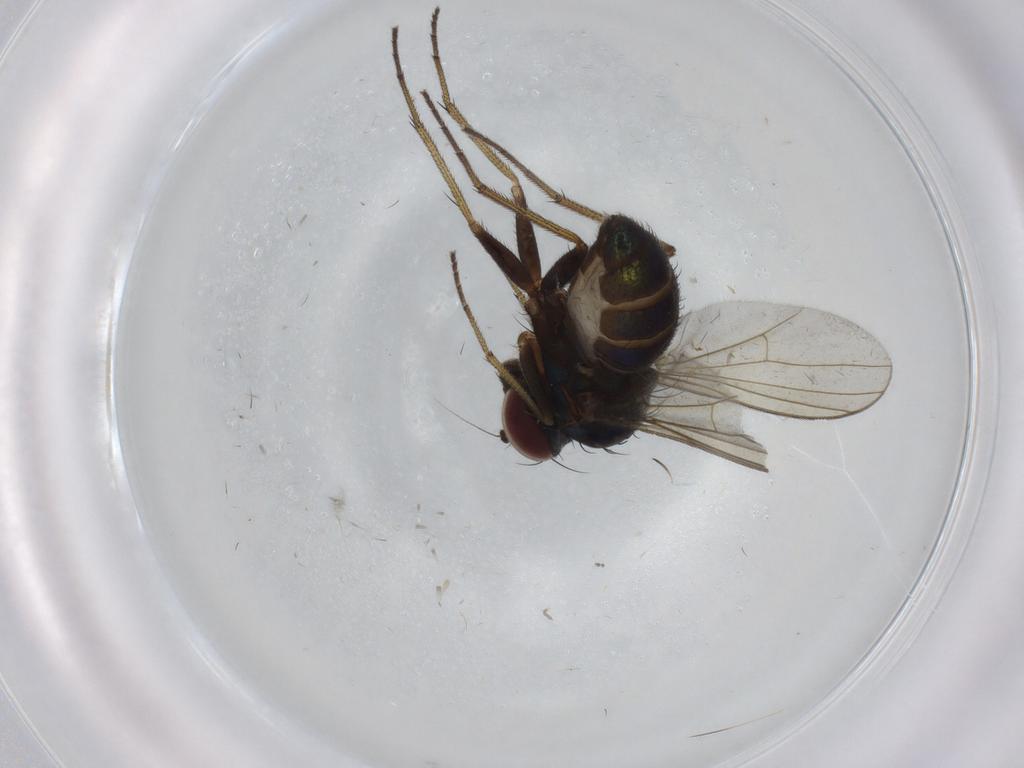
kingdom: Animalia
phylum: Arthropoda
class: Insecta
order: Diptera
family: Dolichopodidae
